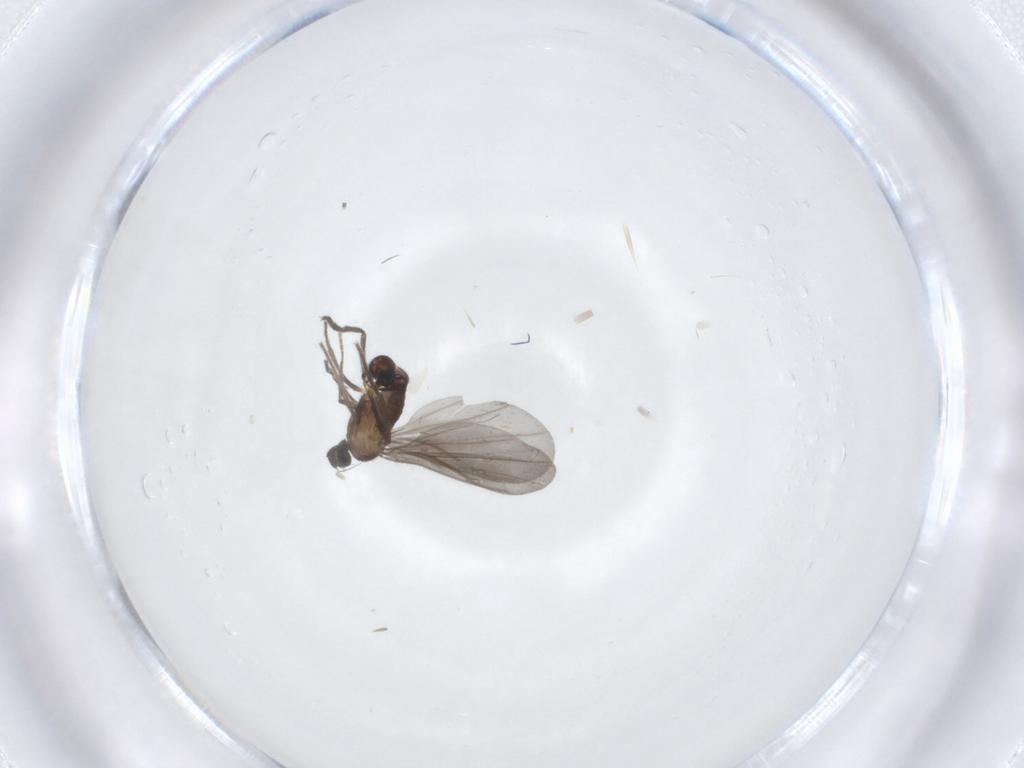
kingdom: Animalia
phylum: Arthropoda
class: Insecta
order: Diptera
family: Phoridae
